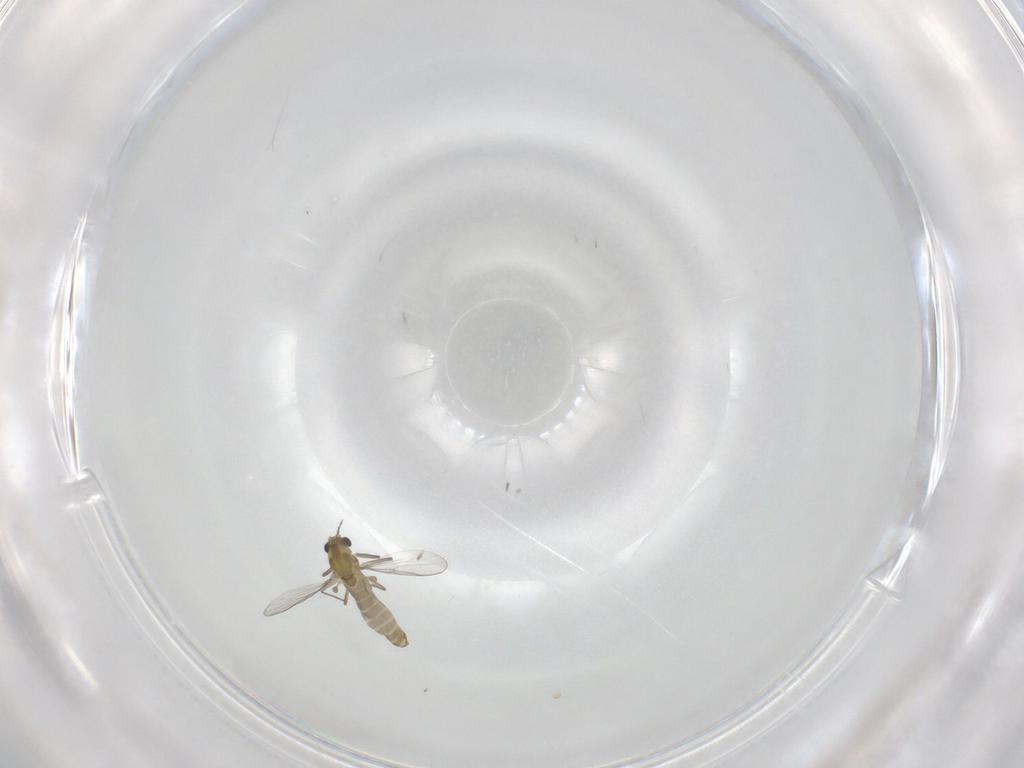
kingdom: Animalia
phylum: Arthropoda
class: Insecta
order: Diptera
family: Chironomidae
